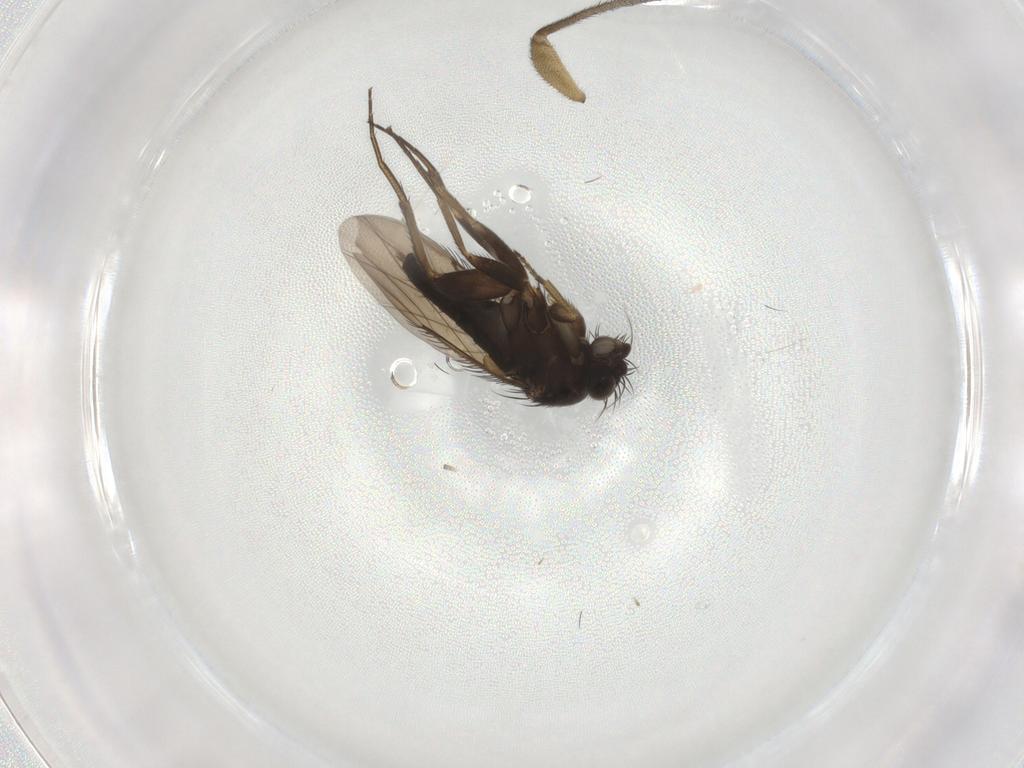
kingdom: Animalia
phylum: Arthropoda
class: Insecta
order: Diptera
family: Phoridae
